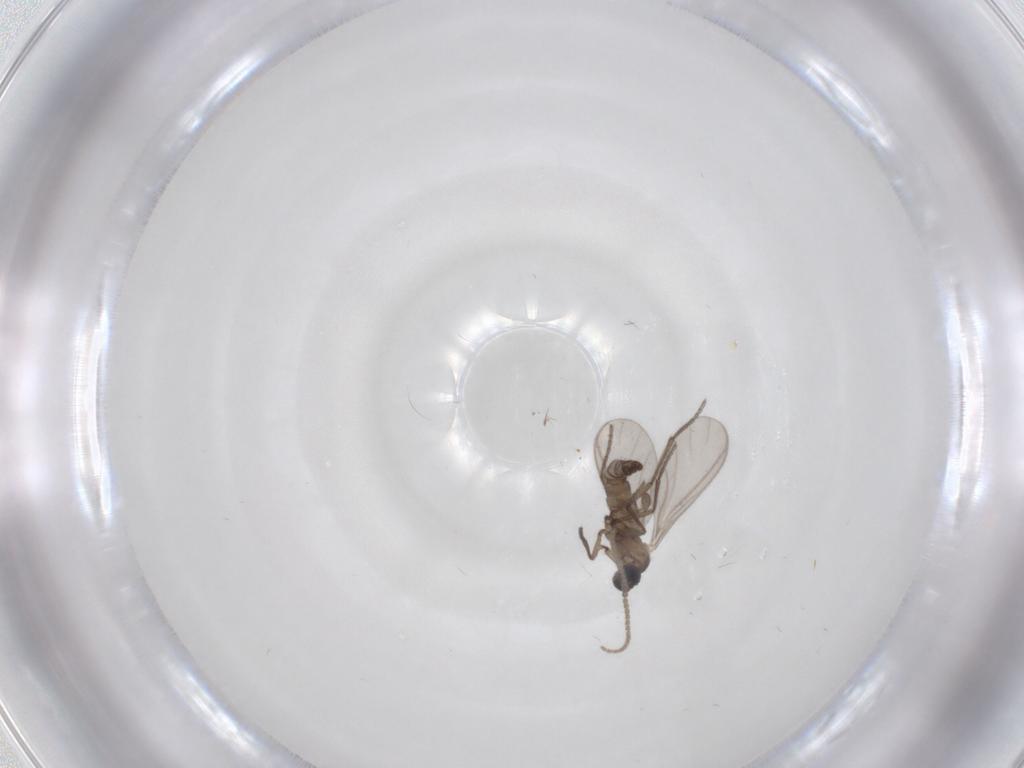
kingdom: Animalia
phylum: Arthropoda
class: Insecta
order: Diptera
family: Sciaridae
